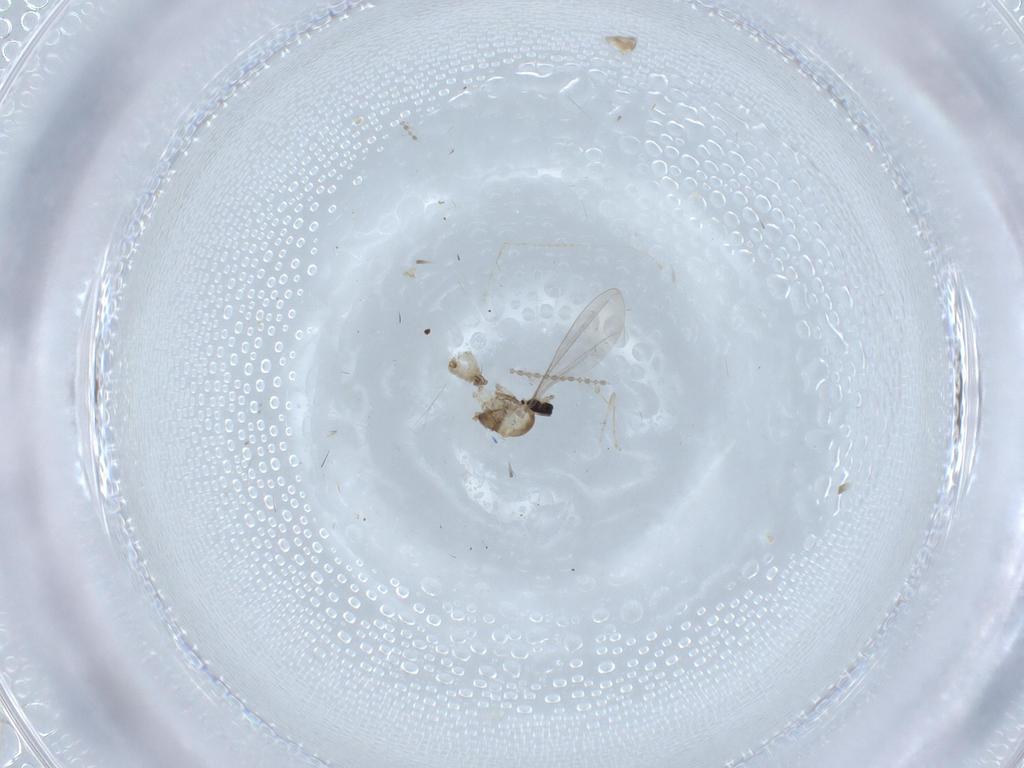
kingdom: Animalia
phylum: Arthropoda
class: Insecta
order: Diptera
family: Cecidomyiidae
